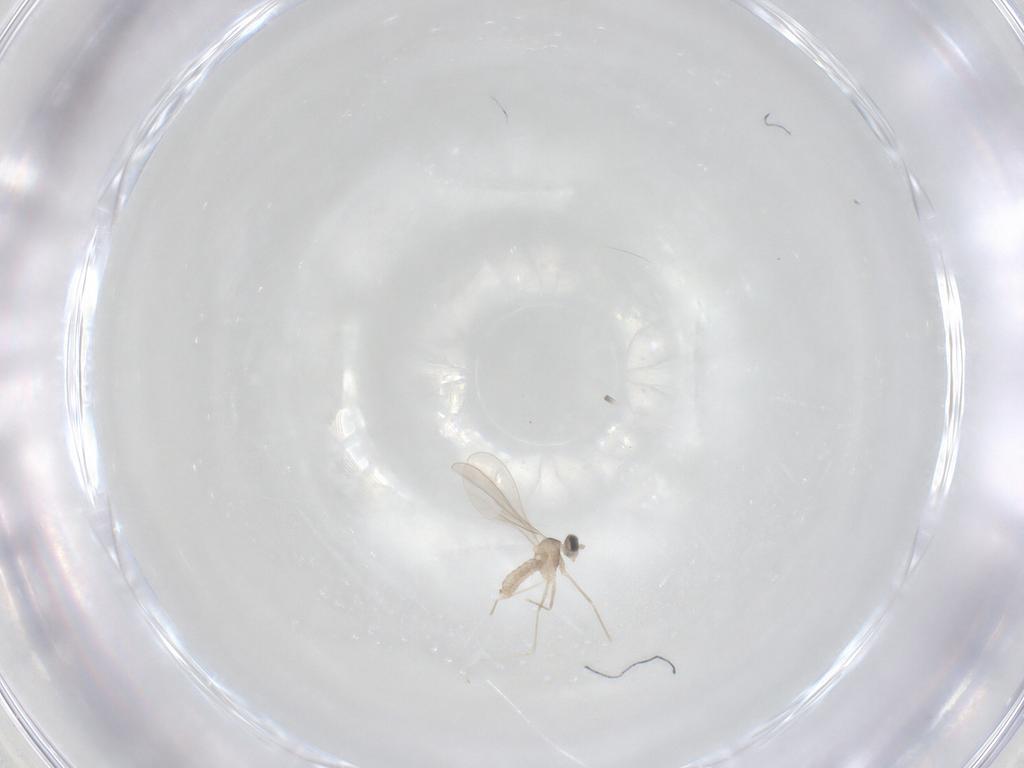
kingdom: Animalia
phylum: Arthropoda
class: Insecta
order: Diptera
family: Cecidomyiidae
